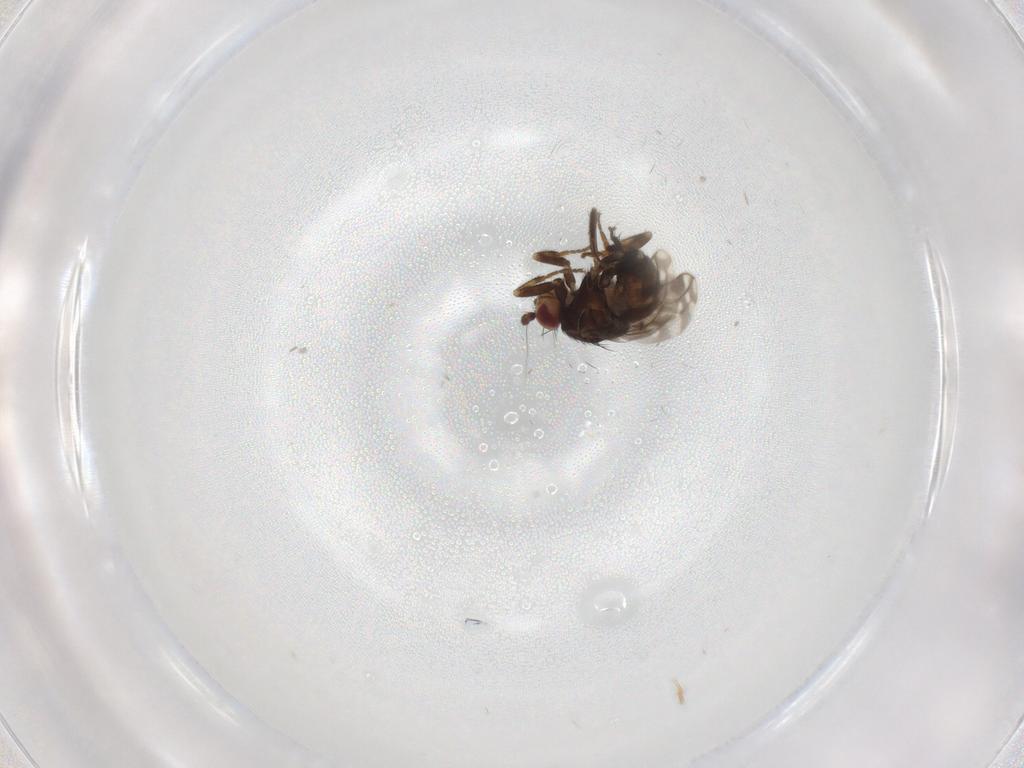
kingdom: Animalia
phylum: Arthropoda
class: Insecta
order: Diptera
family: Sphaeroceridae
